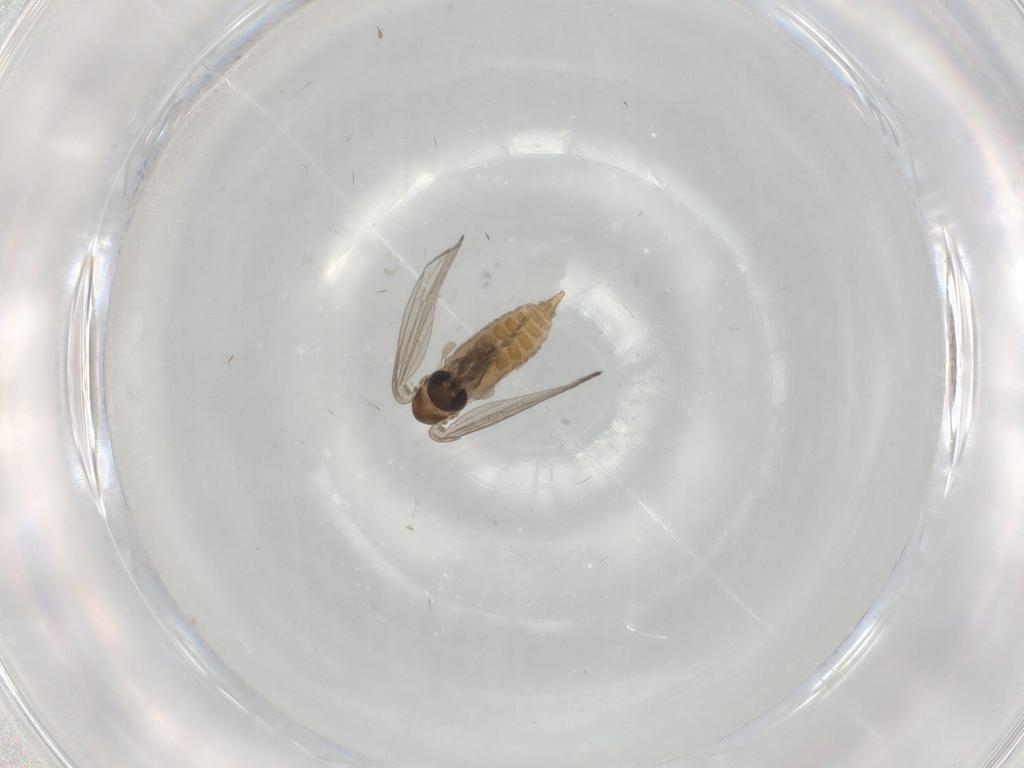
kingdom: Animalia
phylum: Arthropoda
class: Insecta
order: Diptera
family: Psychodidae
